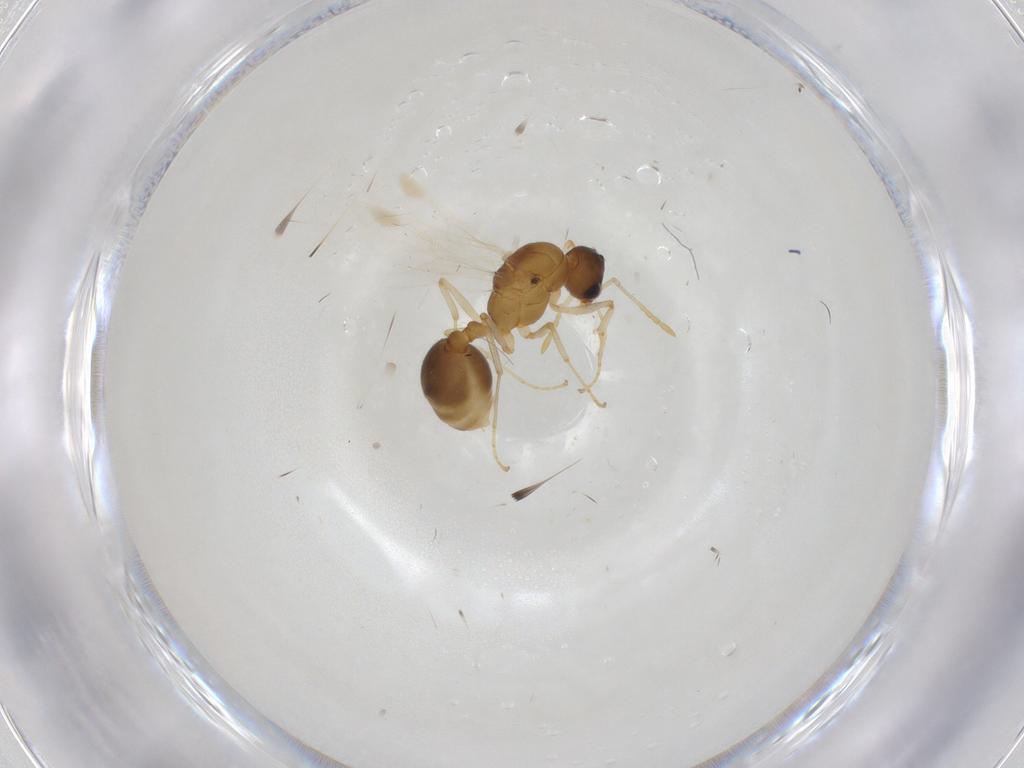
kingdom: Animalia
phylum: Arthropoda
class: Insecta
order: Hymenoptera
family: Formicidae
